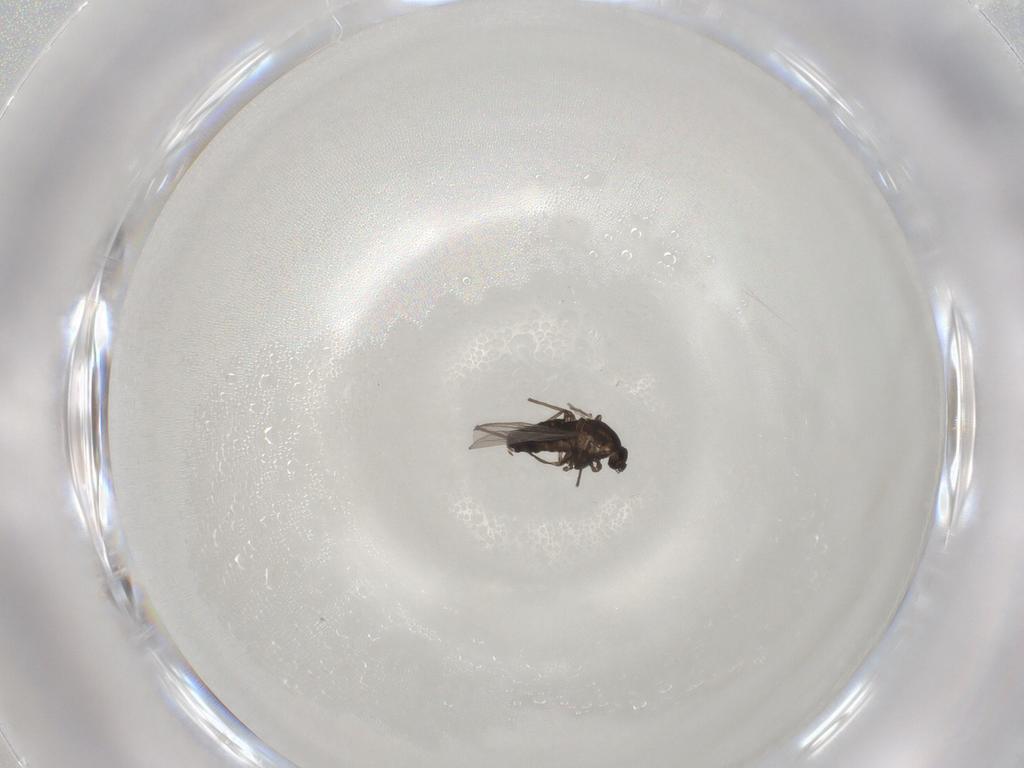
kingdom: Animalia
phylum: Arthropoda
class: Insecta
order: Diptera
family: Chironomidae
